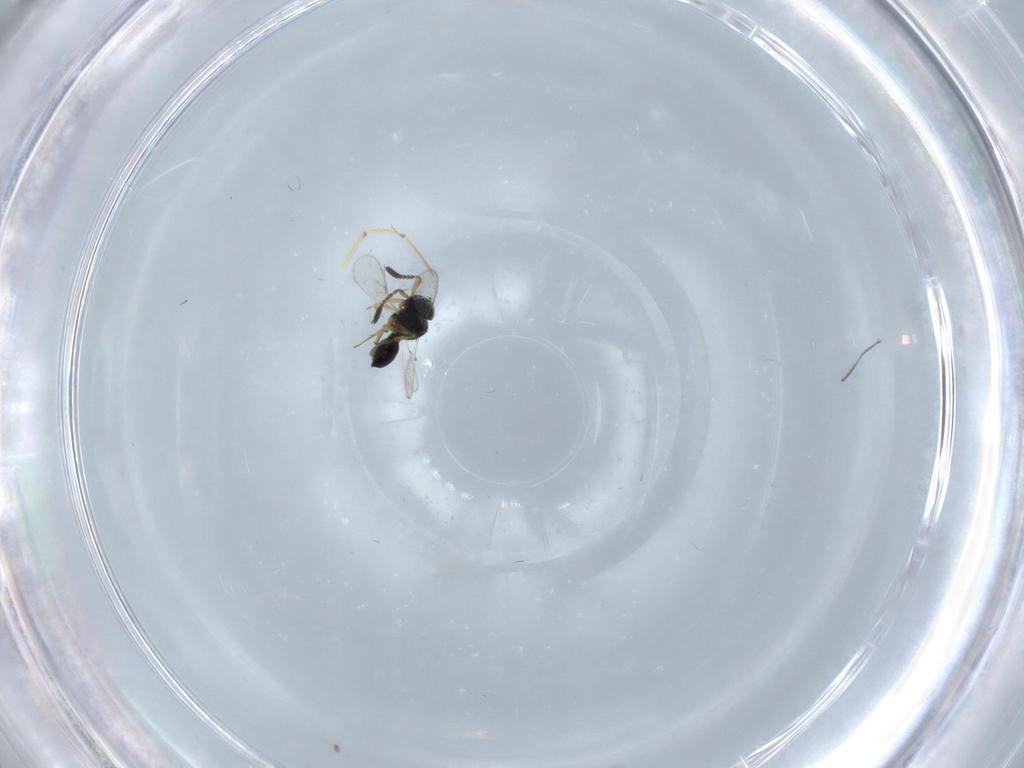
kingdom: Animalia
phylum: Arthropoda
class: Insecta
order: Hymenoptera
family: Scelionidae
